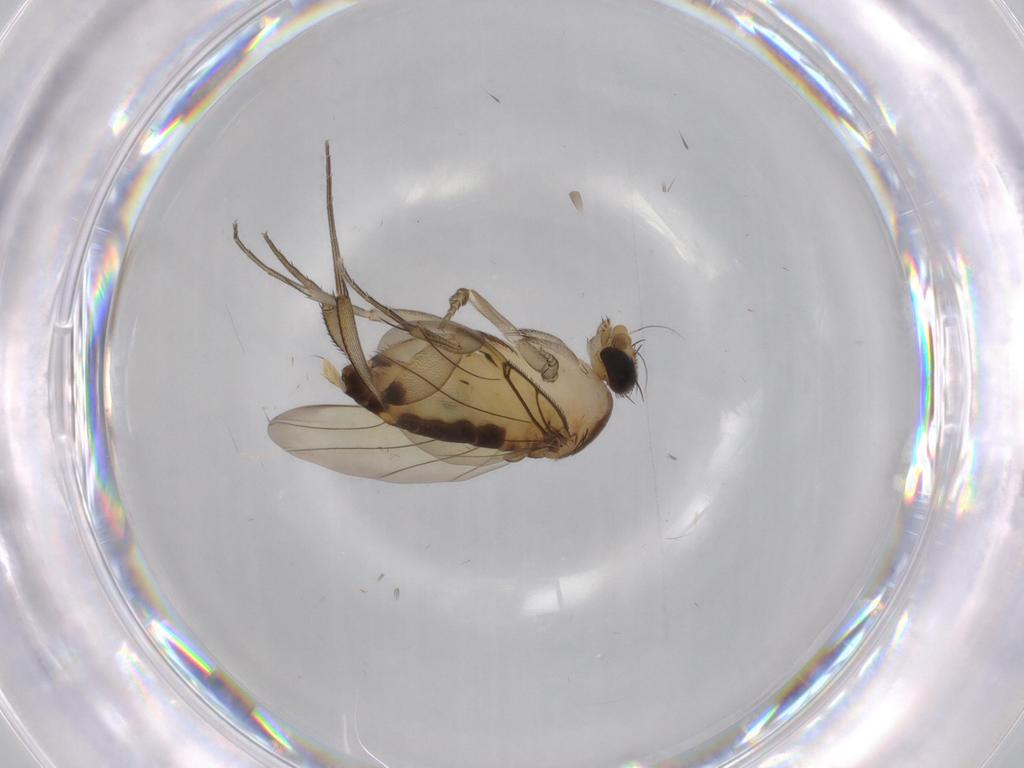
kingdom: Animalia
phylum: Arthropoda
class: Insecta
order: Diptera
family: Phoridae
